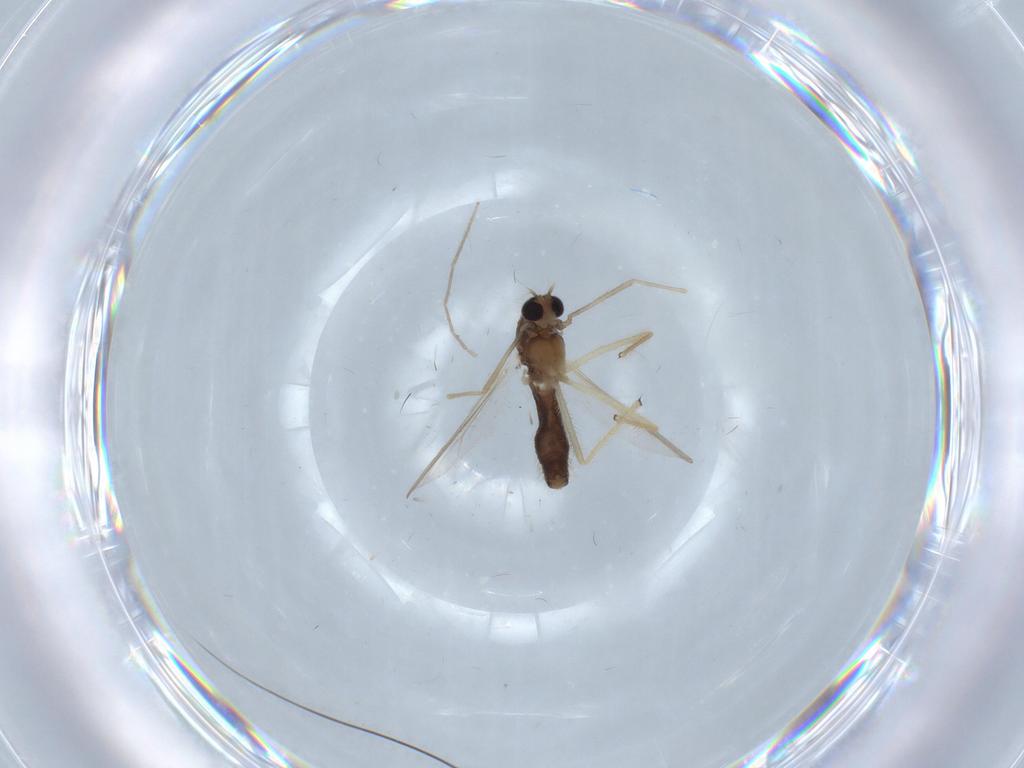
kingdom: Animalia
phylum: Arthropoda
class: Insecta
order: Diptera
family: Chironomidae
